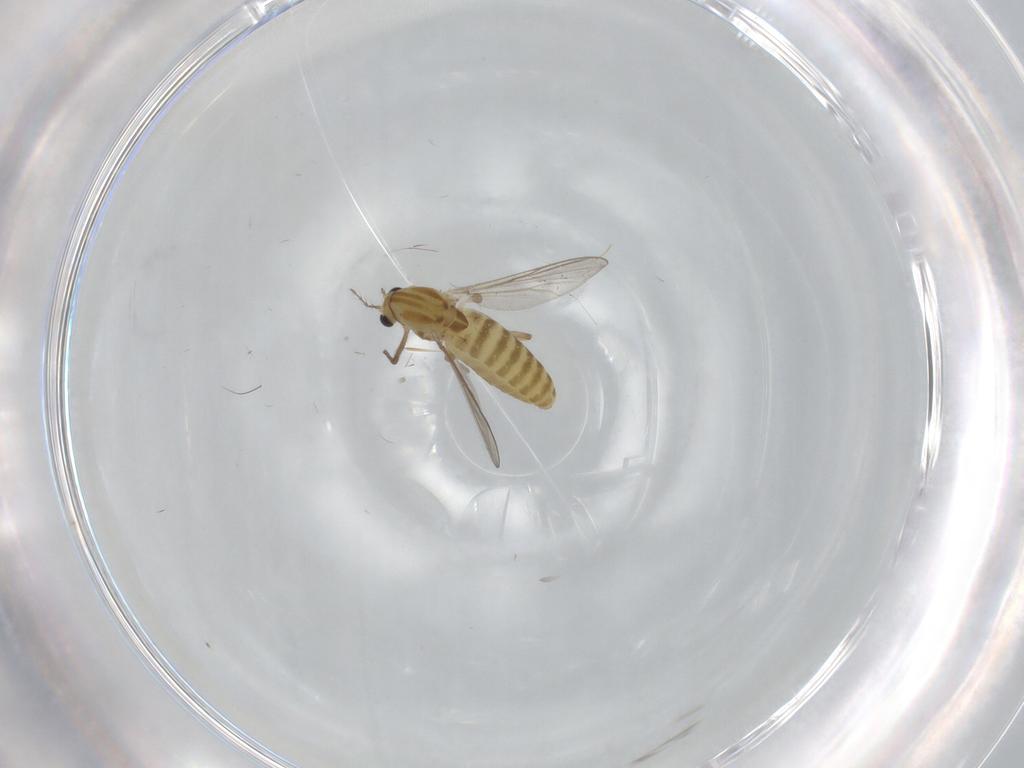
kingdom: Animalia
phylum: Arthropoda
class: Insecta
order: Diptera
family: Chironomidae
